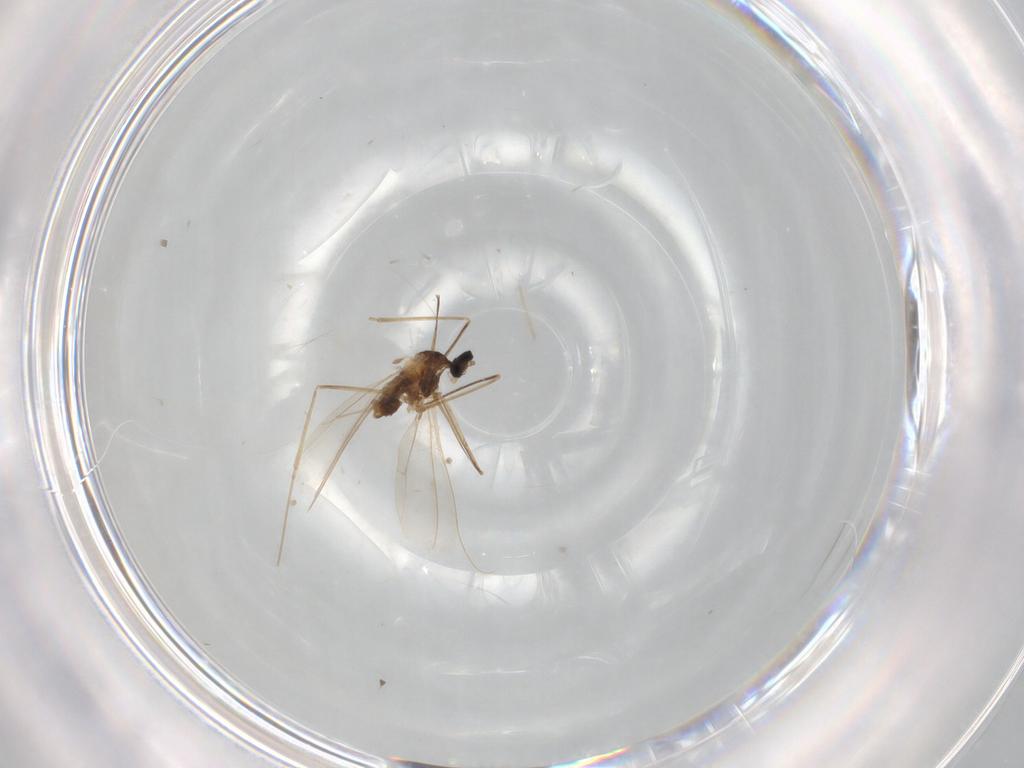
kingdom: Animalia
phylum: Arthropoda
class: Insecta
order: Diptera
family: Cecidomyiidae
